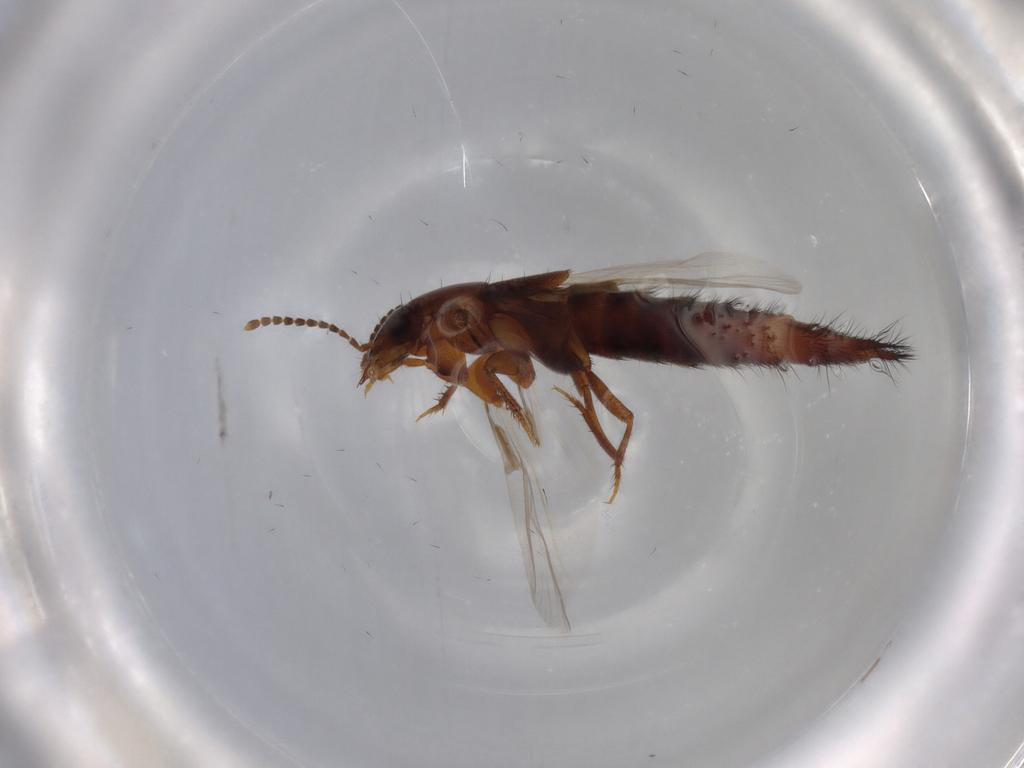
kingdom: Animalia
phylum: Arthropoda
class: Insecta
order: Coleoptera
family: Staphylinidae
